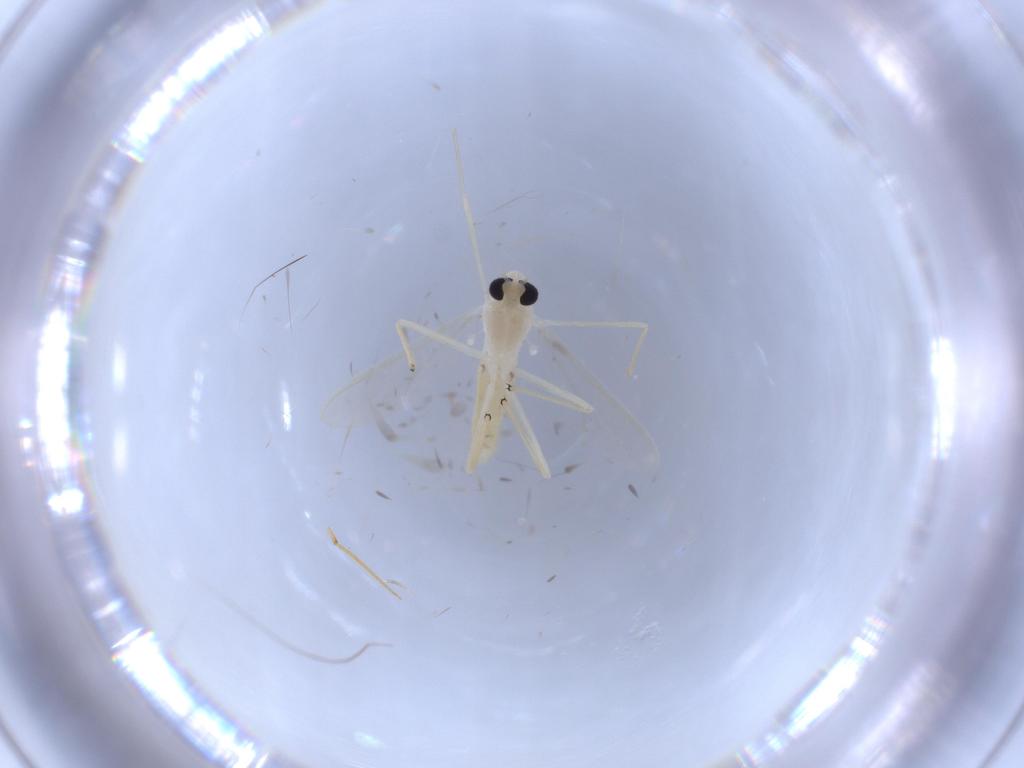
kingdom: Animalia
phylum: Arthropoda
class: Insecta
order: Diptera
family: Chironomidae
